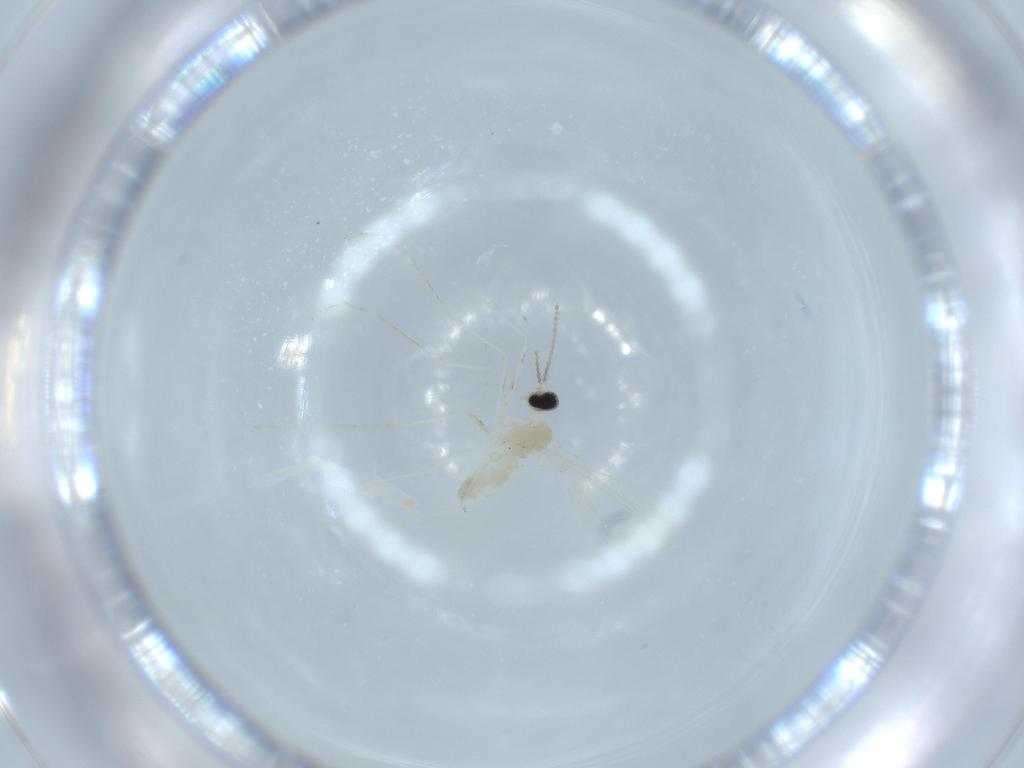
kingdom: Animalia
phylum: Arthropoda
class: Insecta
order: Diptera
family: Cecidomyiidae
